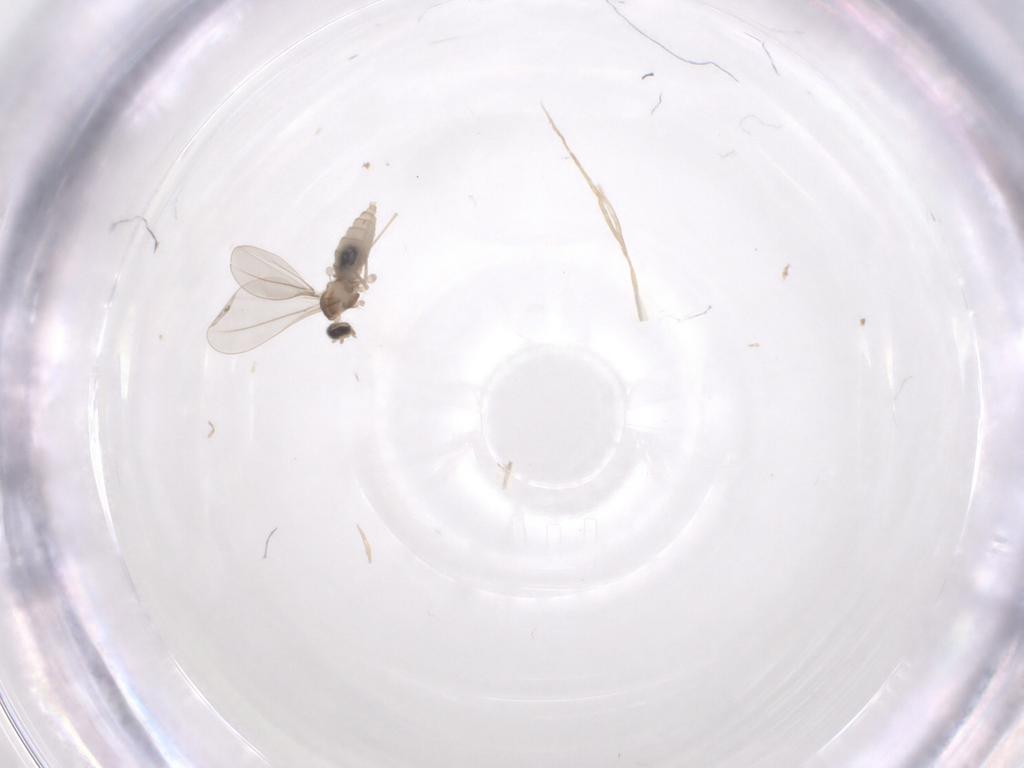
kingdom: Animalia
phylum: Arthropoda
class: Insecta
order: Diptera
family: Cecidomyiidae
